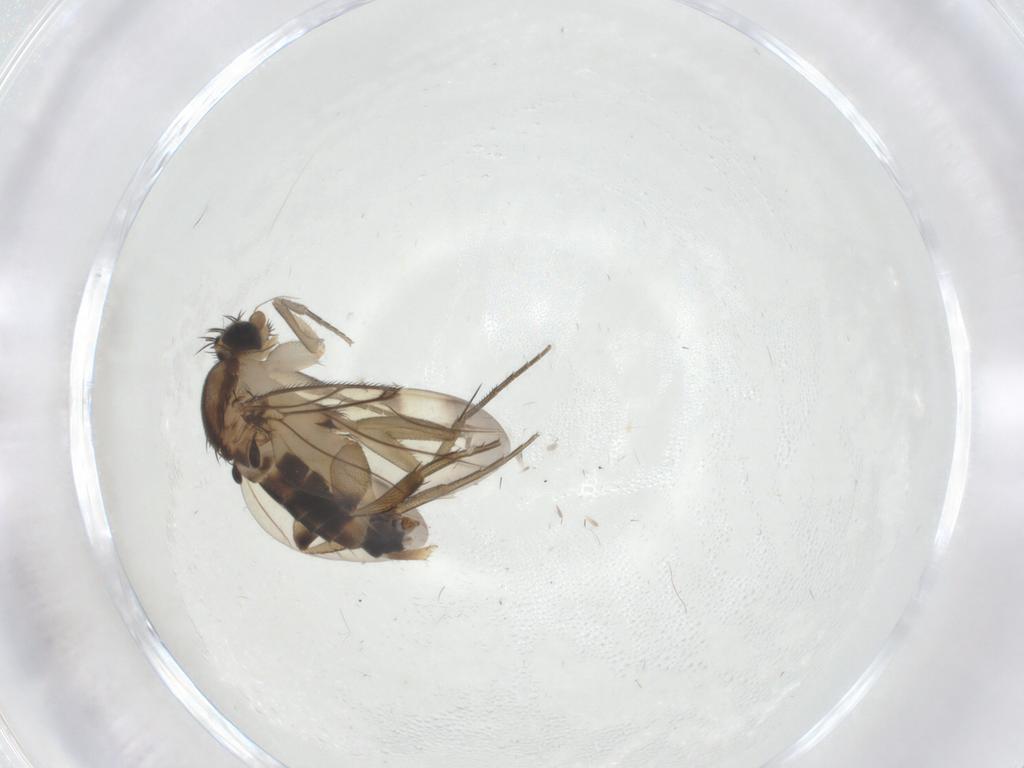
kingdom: Animalia
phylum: Arthropoda
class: Insecta
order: Diptera
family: Phoridae
